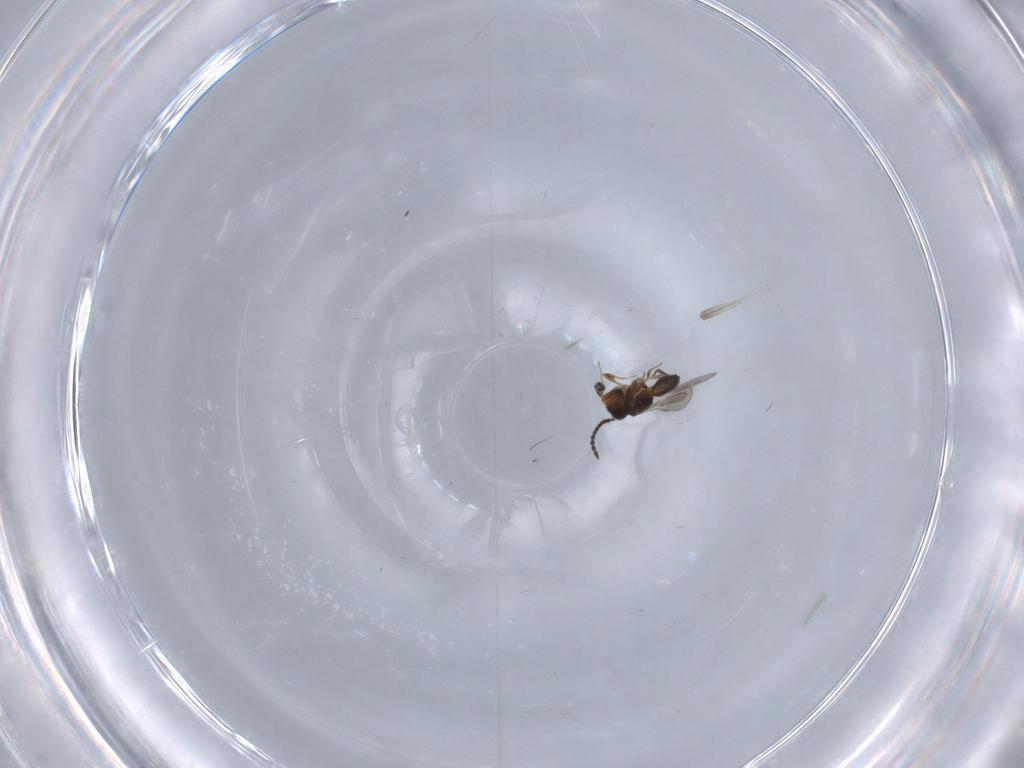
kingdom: Animalia
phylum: Arthropoda
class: Insecta
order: Hymenoptera
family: Scelionidae
